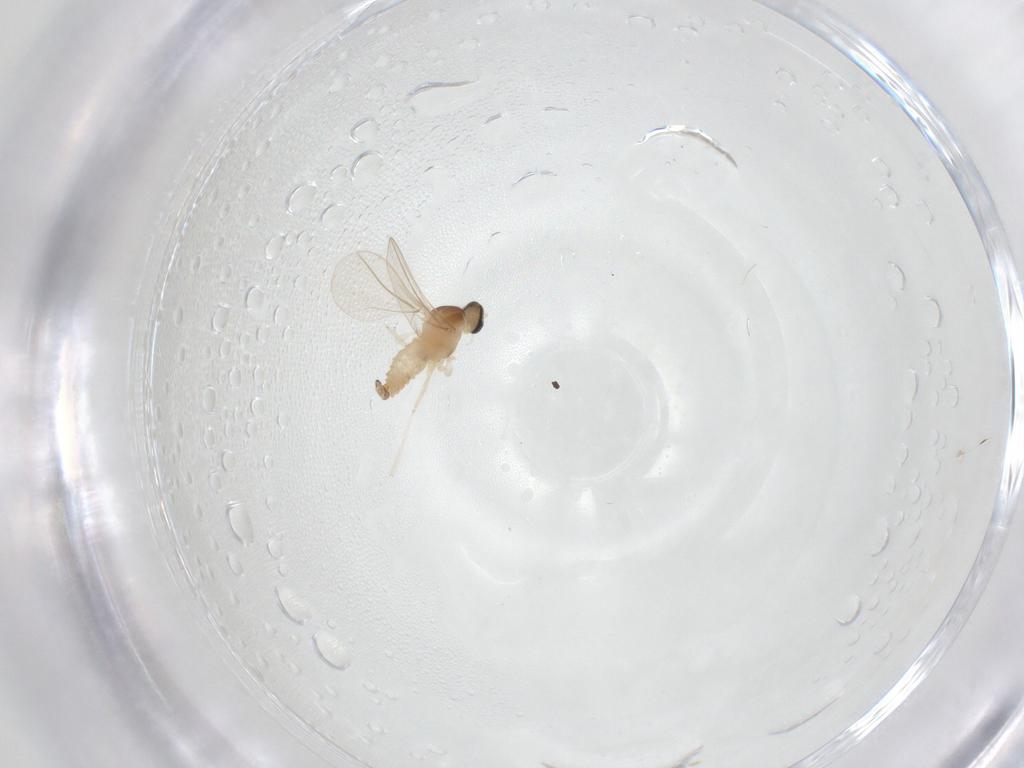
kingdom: Animalia
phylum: Arthropoda
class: Insecta
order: Diptera
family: Cecidomyiidae
